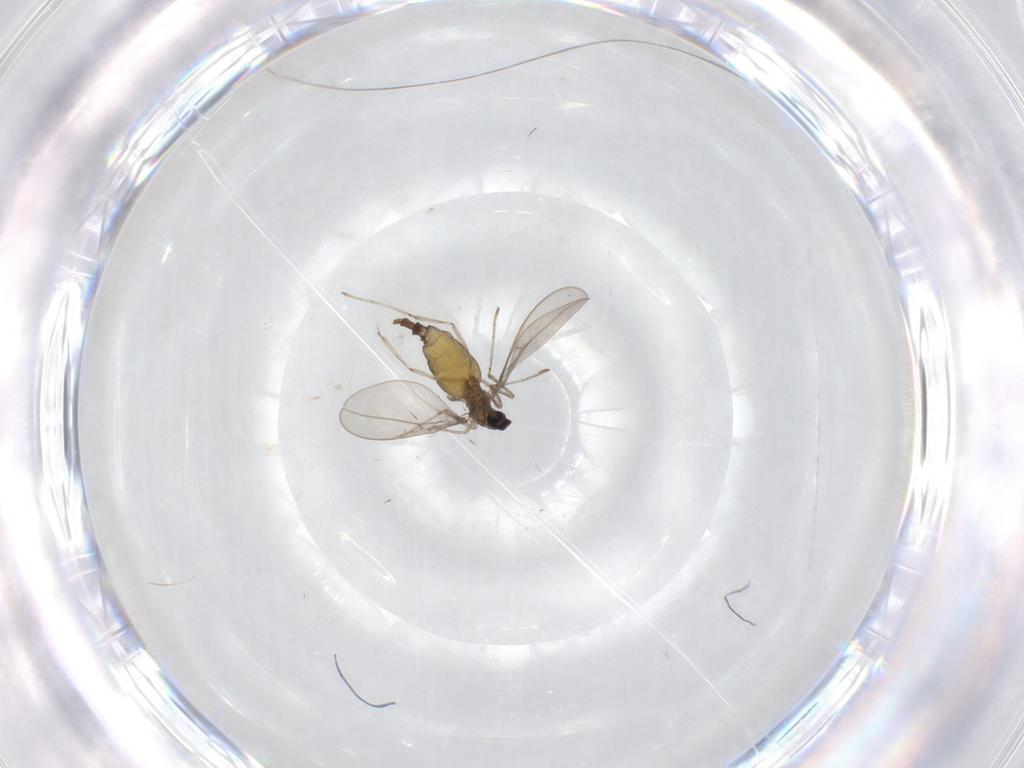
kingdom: Animalia
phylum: Arthropoda
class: Insecta
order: Diptera
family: Cecidomyiidae
